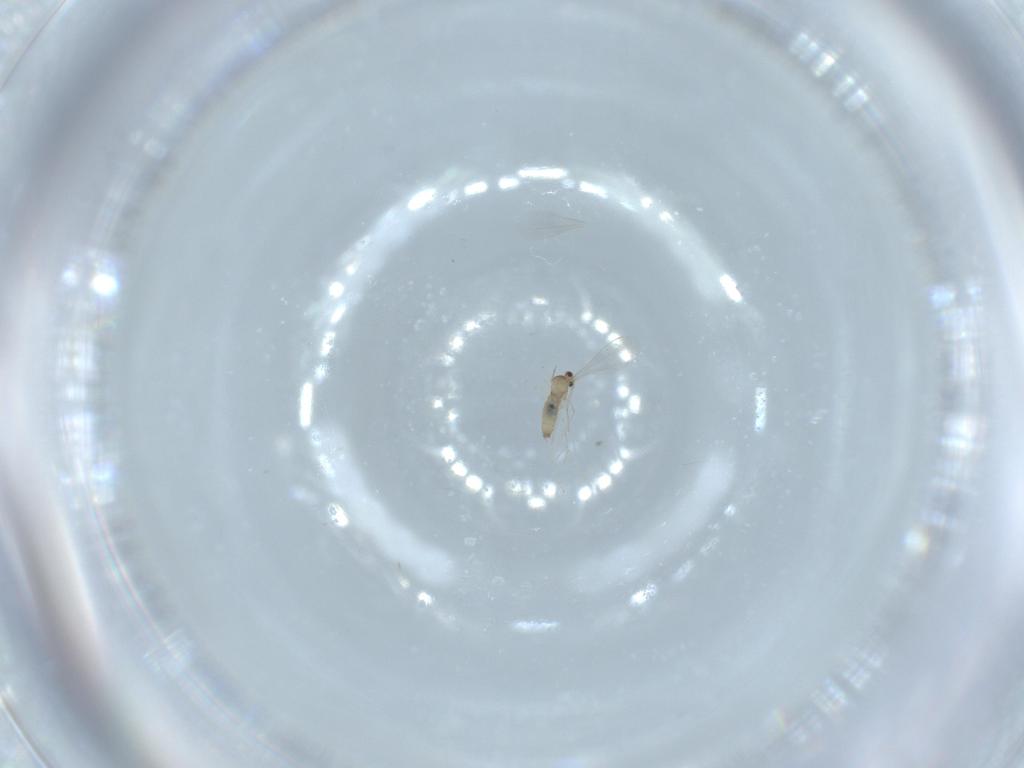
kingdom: Animalia
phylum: Arthropoda
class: Insecta
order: Diptera
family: Cecidomyiidae
